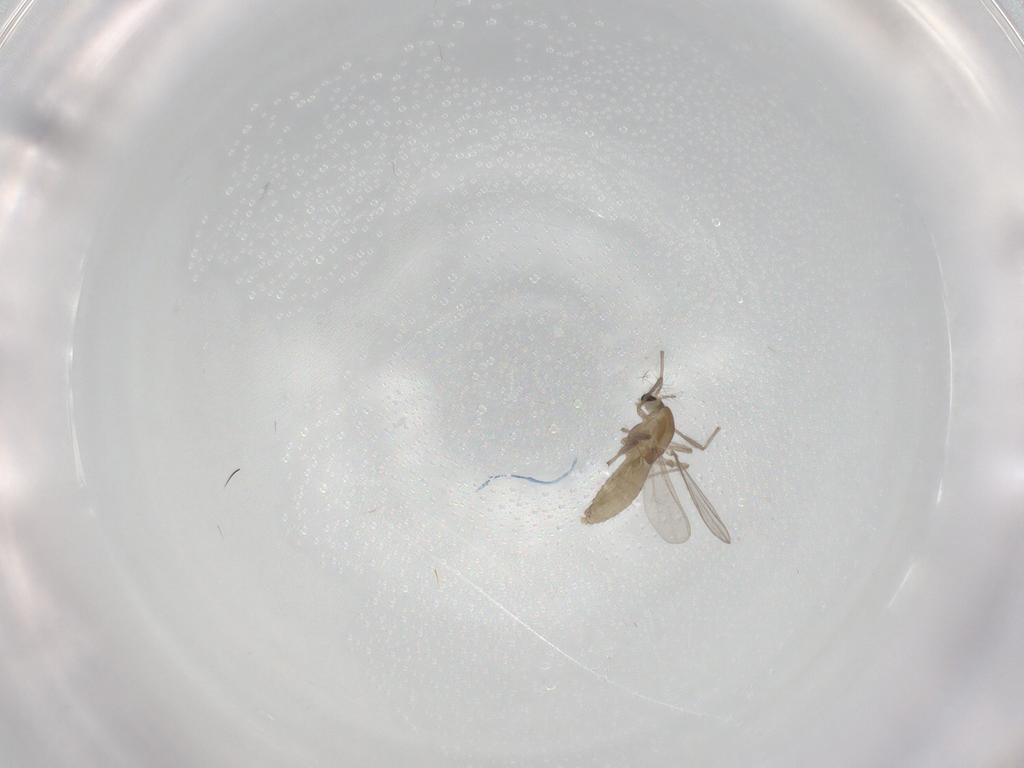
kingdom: Animalia
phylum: Arthropoda
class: Insecta
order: Diptera
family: Chironomidae
